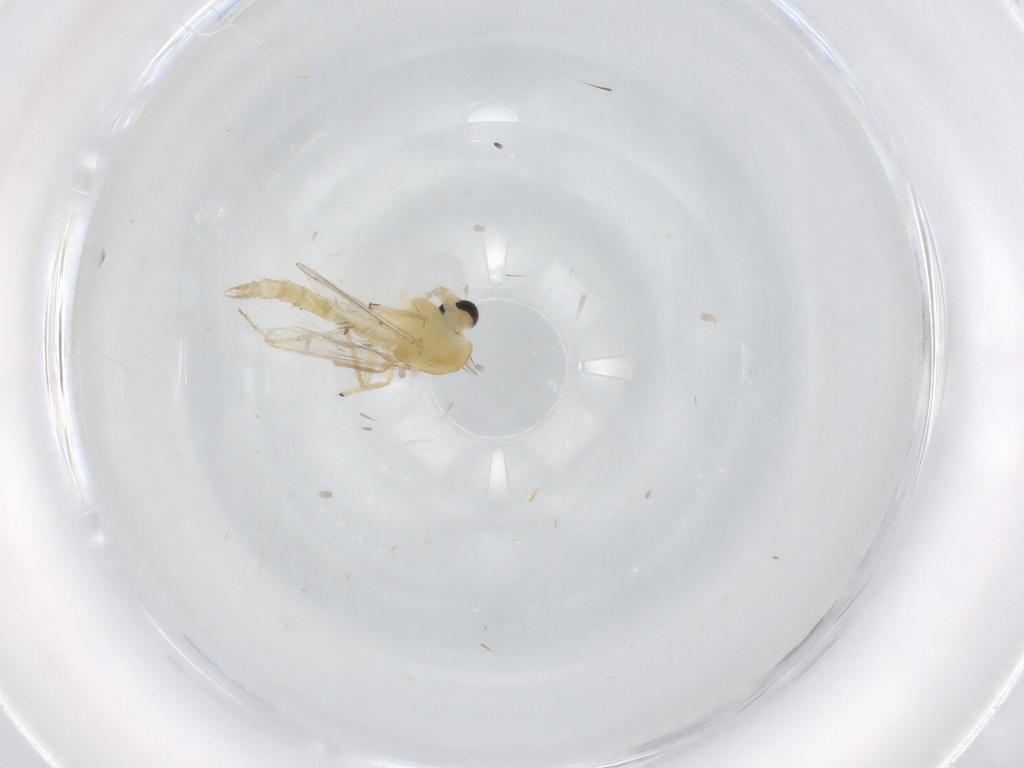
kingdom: Animalia
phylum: Arthropoda
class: Insecta
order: Diptera
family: Chironomidae
